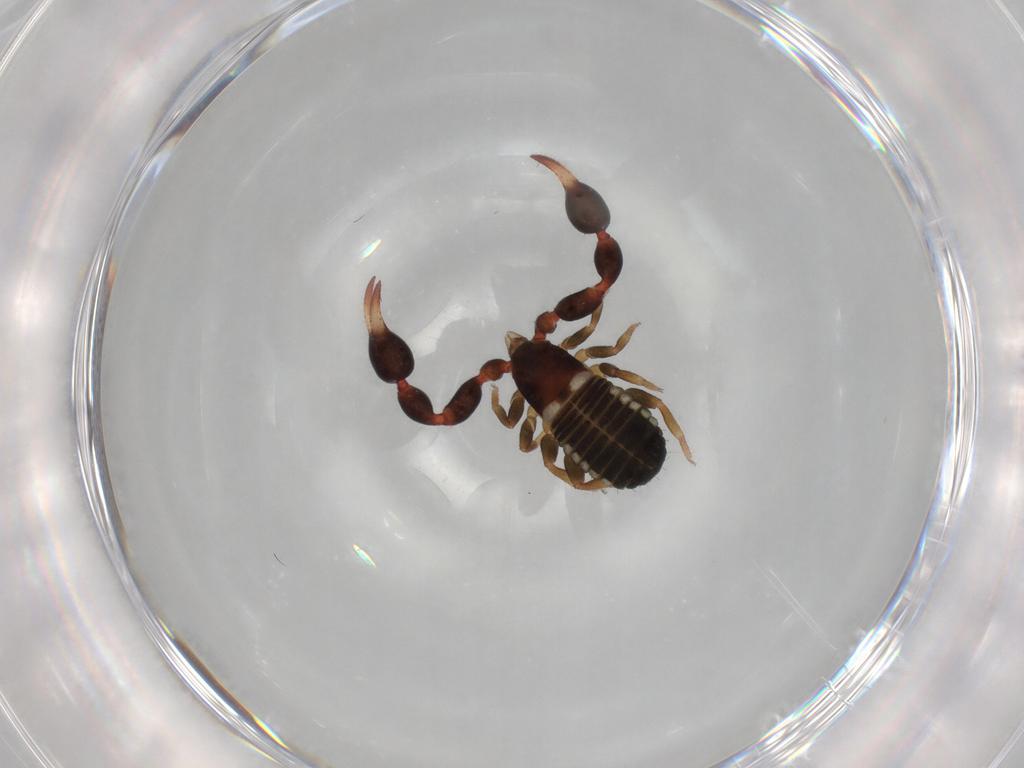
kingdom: Animalia
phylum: Arthropoda
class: Arachnida
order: Pseudoscorpiones
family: Chernetidae
